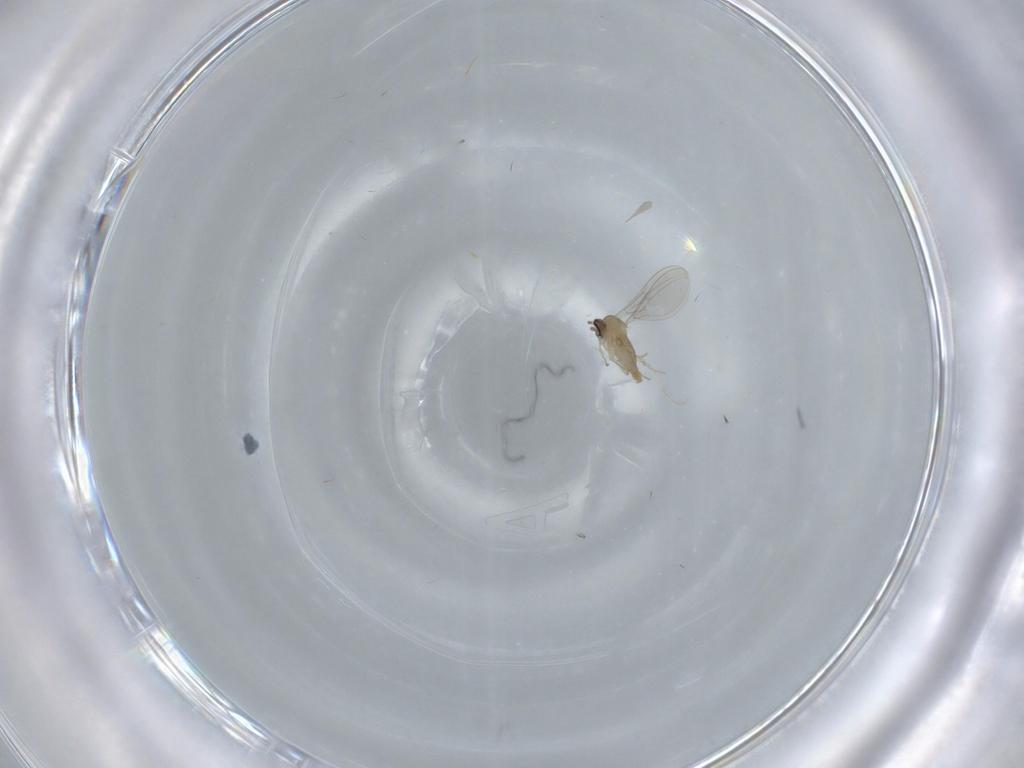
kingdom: Animalia
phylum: Arthropoda
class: Insecta
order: Diptera
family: Cecidomyiidae
